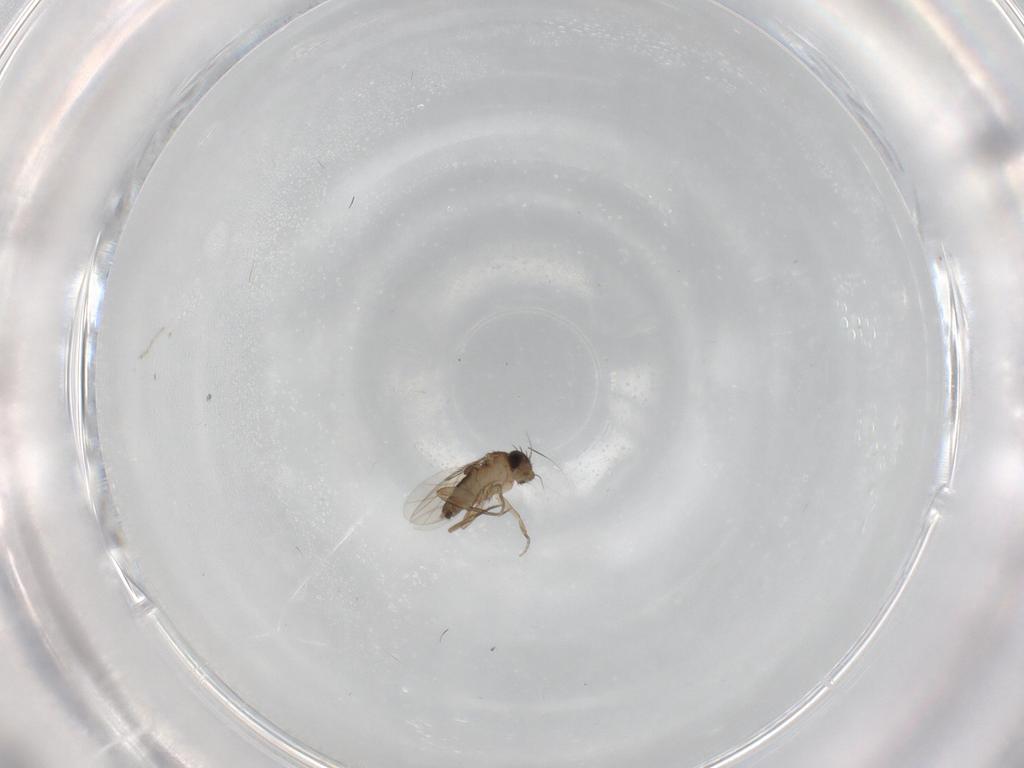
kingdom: Animalia
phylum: Arthropoda
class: Insecta
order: Diptera
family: Phoridae
